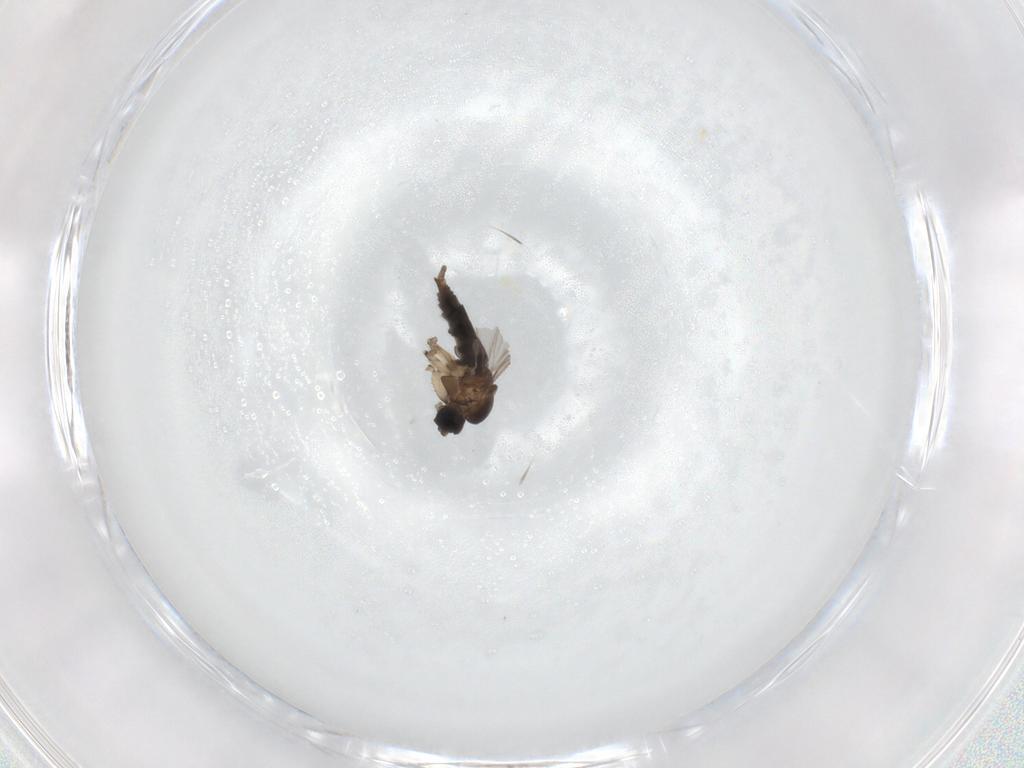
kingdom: Animalia
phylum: Arthropoda
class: Insecta
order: Diptera
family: Sciaridae
